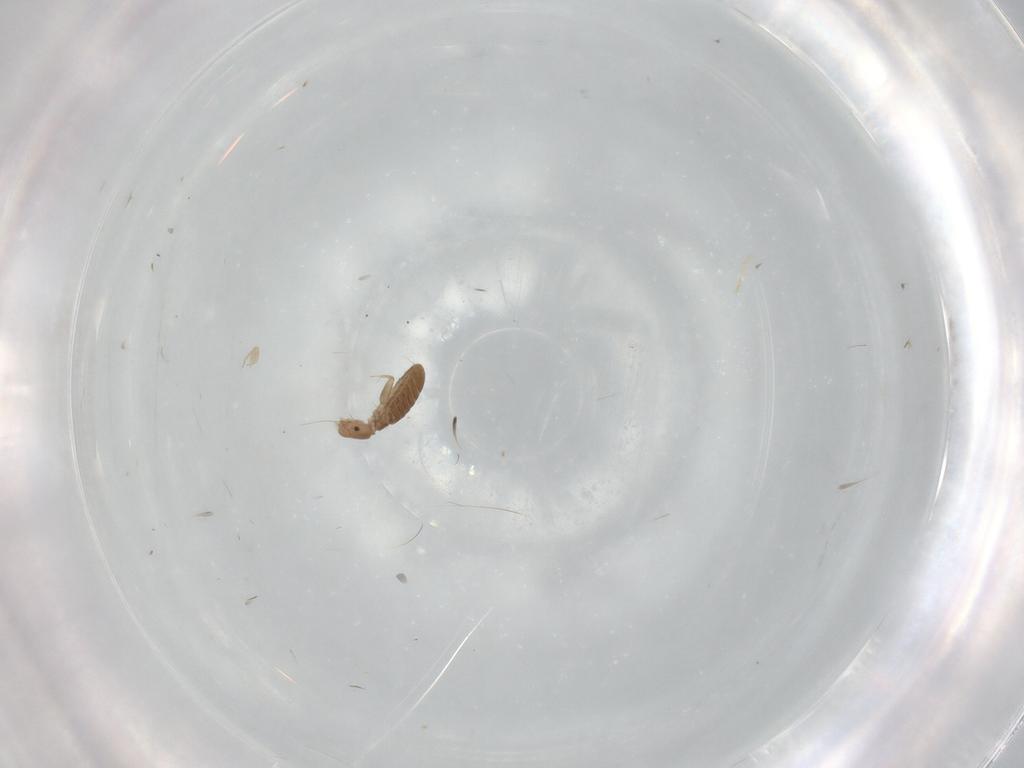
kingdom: Animalia
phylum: Arthropoda
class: Insecta
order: Psocodea
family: Liposcelididae
